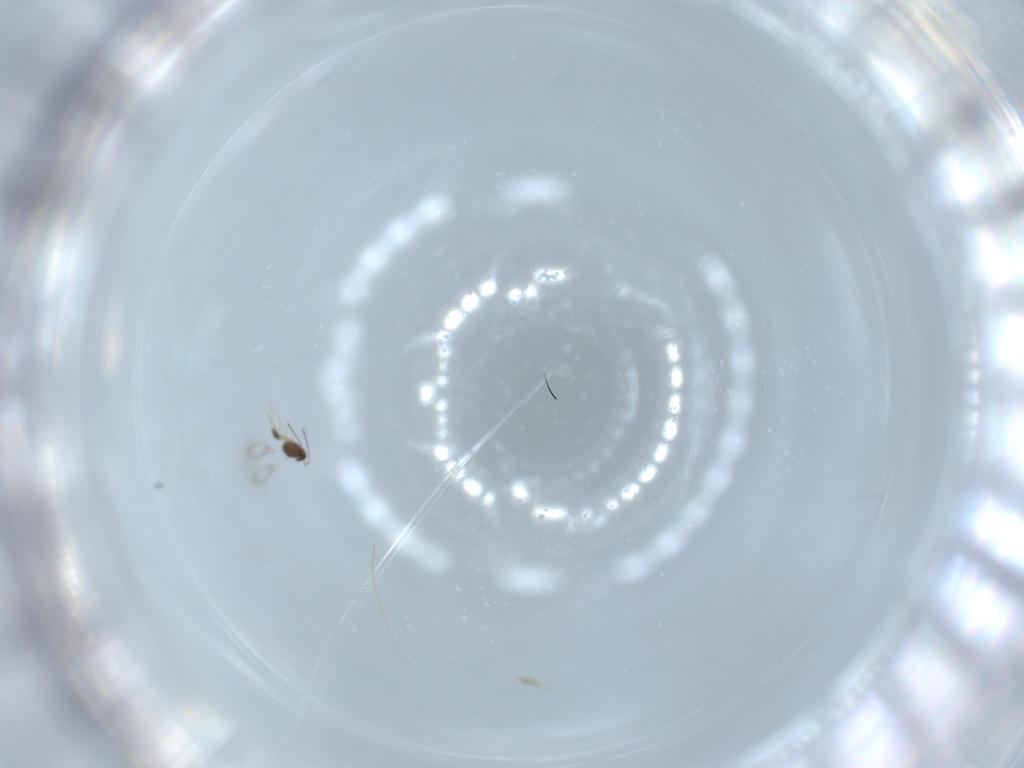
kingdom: Animalia
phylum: Arthropoda
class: Insecta
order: Hymenoptera
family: Mymarommatidae
